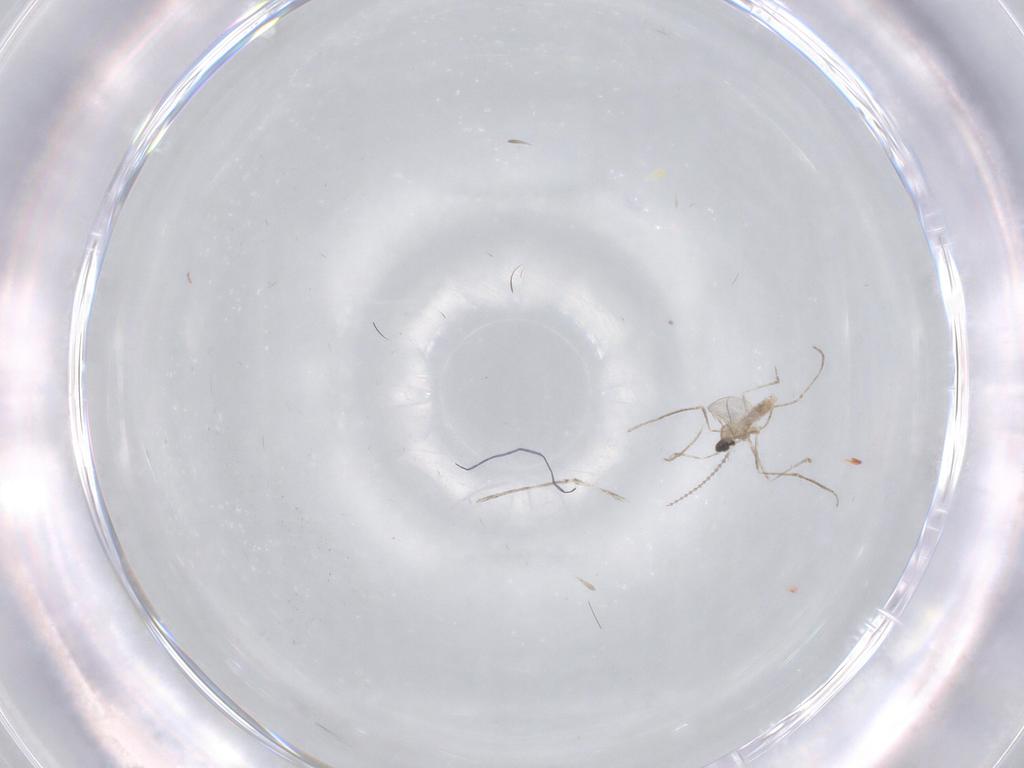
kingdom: Animalia
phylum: Arthropoda
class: Insecta
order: Diptera
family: Cecidomyiidae
